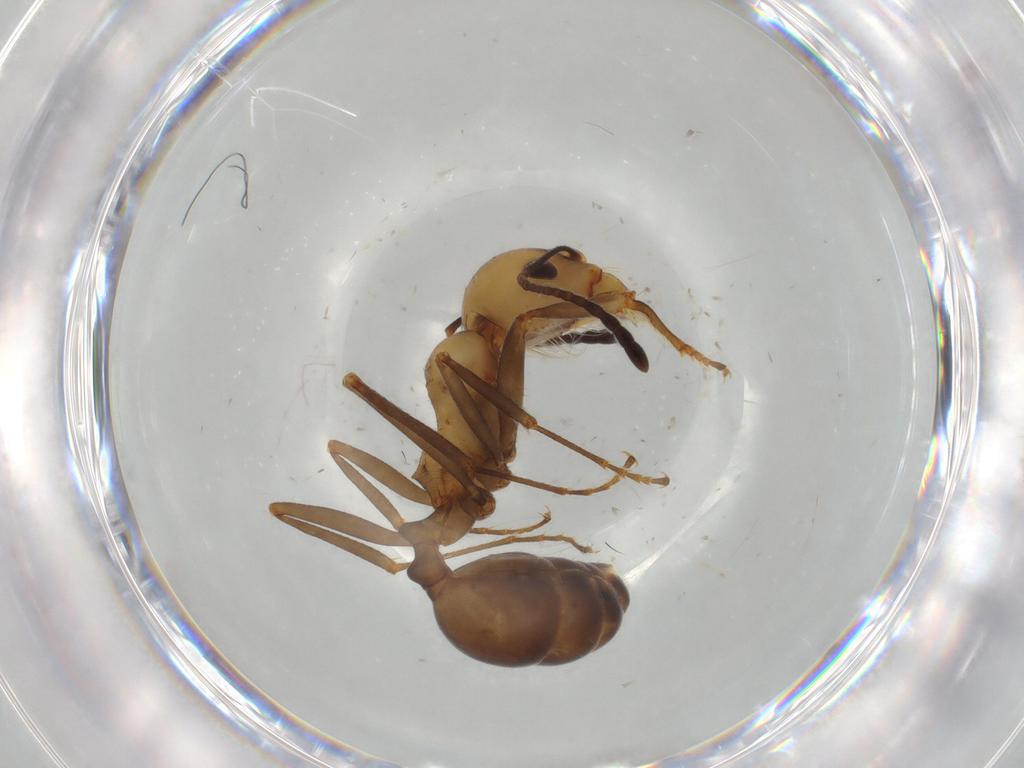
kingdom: Animalia
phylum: Arthropoda
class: Insecta
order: Hymenoptera
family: Formicidae
